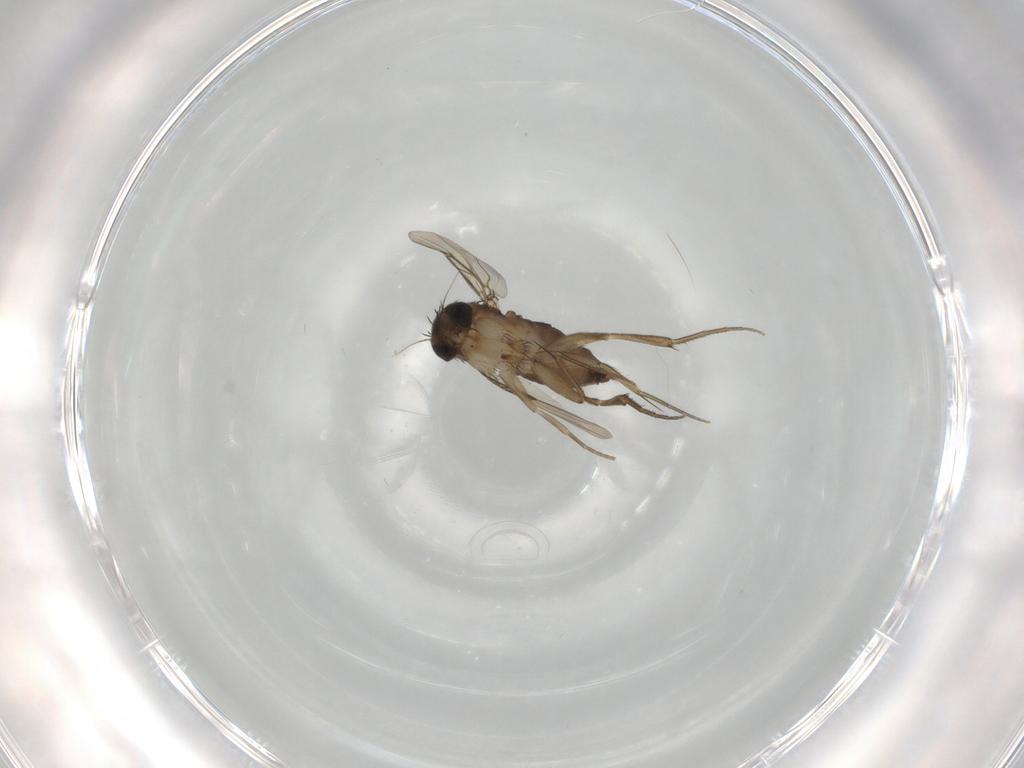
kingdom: Animalia
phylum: Arthropoda
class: Insecta
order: Diptera
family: Phoridae
